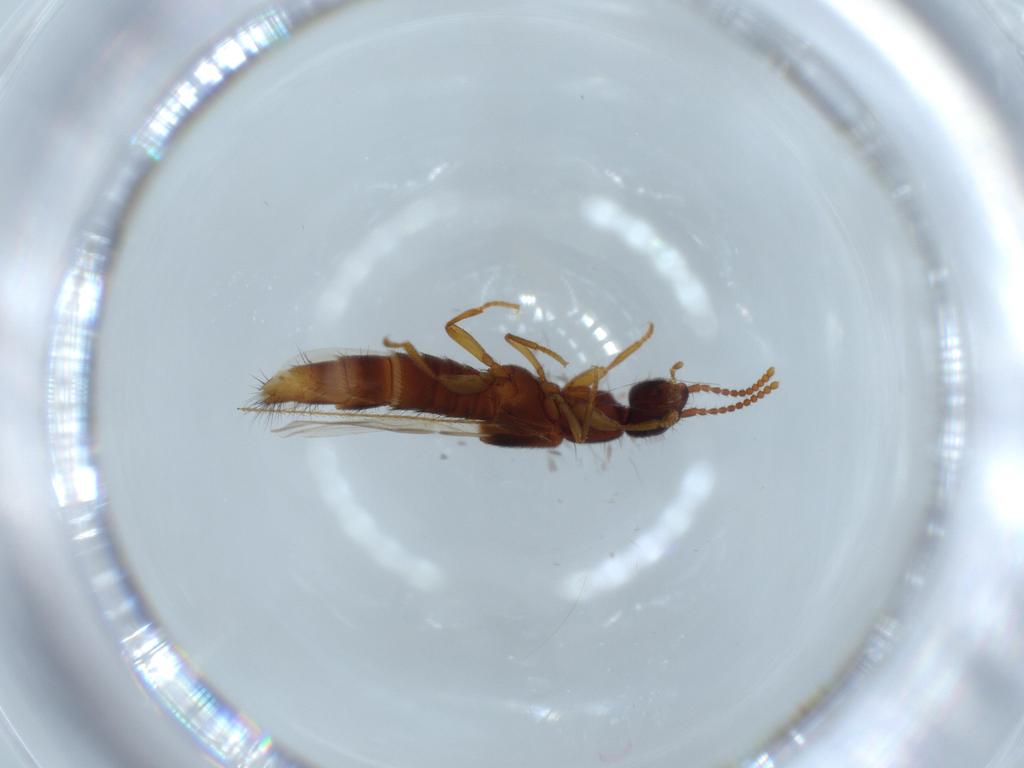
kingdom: Animalia
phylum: Arthropoda
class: Insecta
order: Coleoptera
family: Staphylinidae
